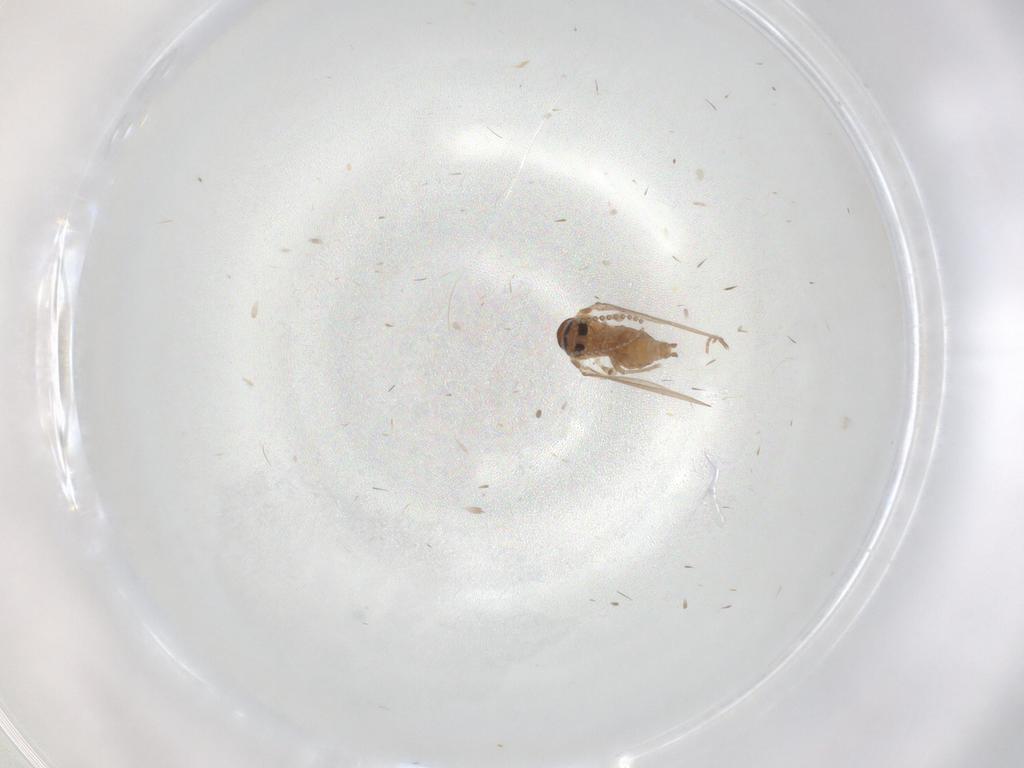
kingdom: Animalia
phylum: Arthropoda
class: Insecta
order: Diptera
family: Psychodidae
